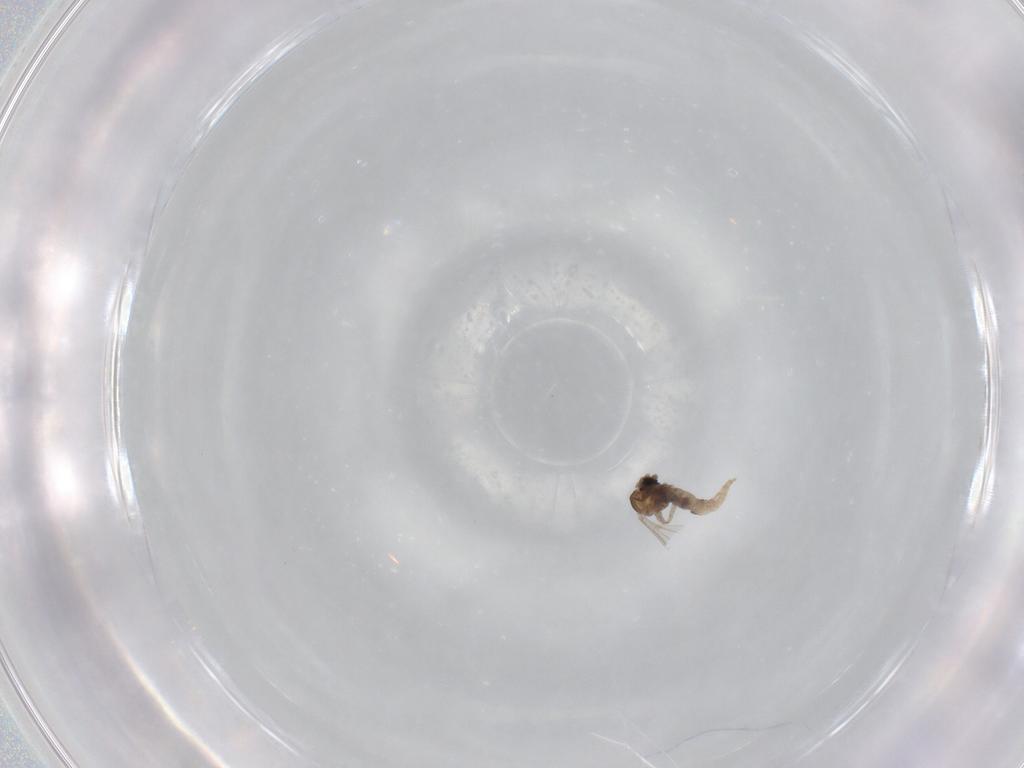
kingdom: Animalia
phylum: Arthropoda
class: Insecta
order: Diptera
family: Cecidomyiidae
